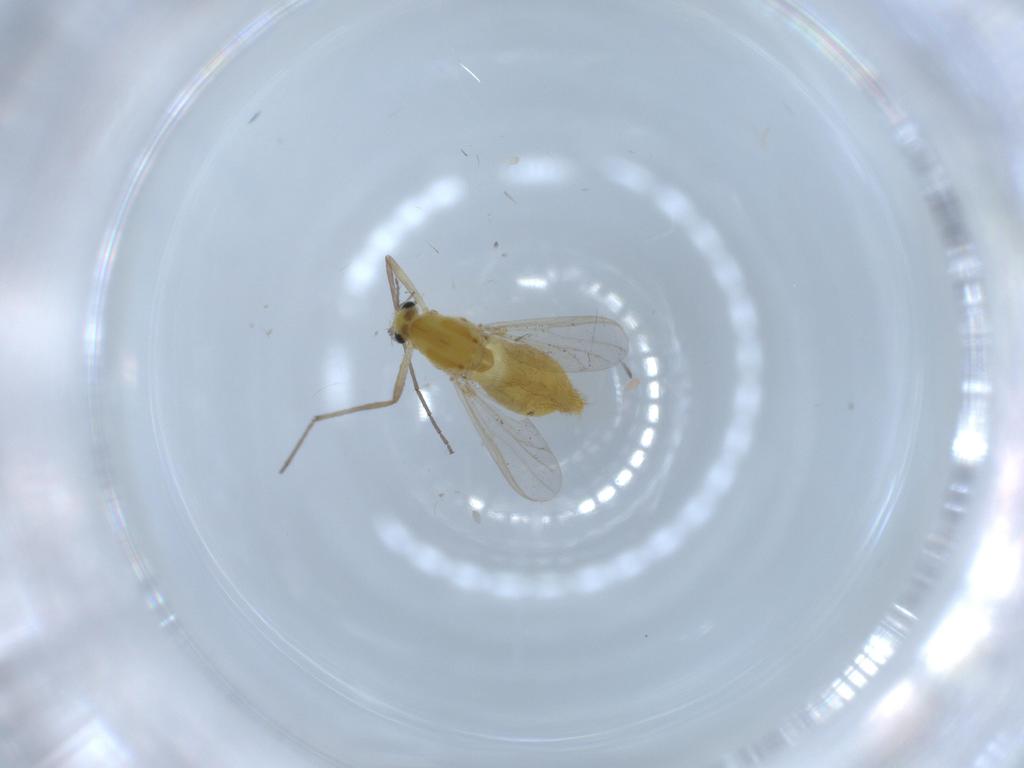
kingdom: Animalia
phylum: Arthropoda
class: Insecta
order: Diptera
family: Chironomidae
